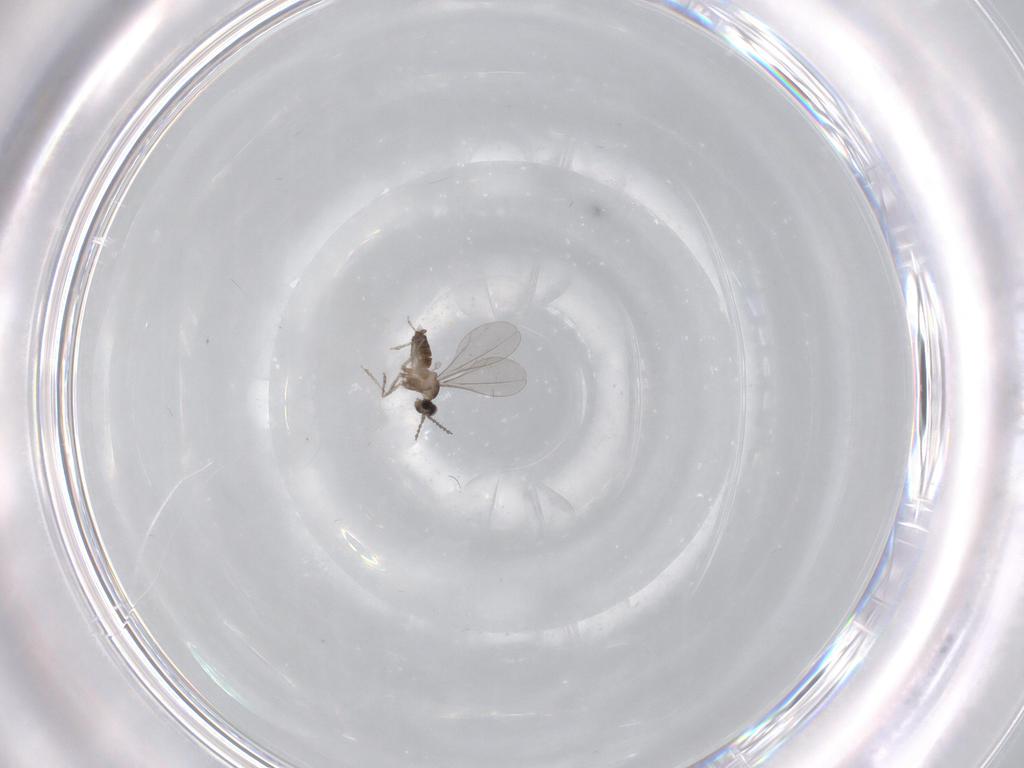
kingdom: Animalia
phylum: Arthropoda
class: Insecta
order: Diptera
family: Cecidomyiidae
